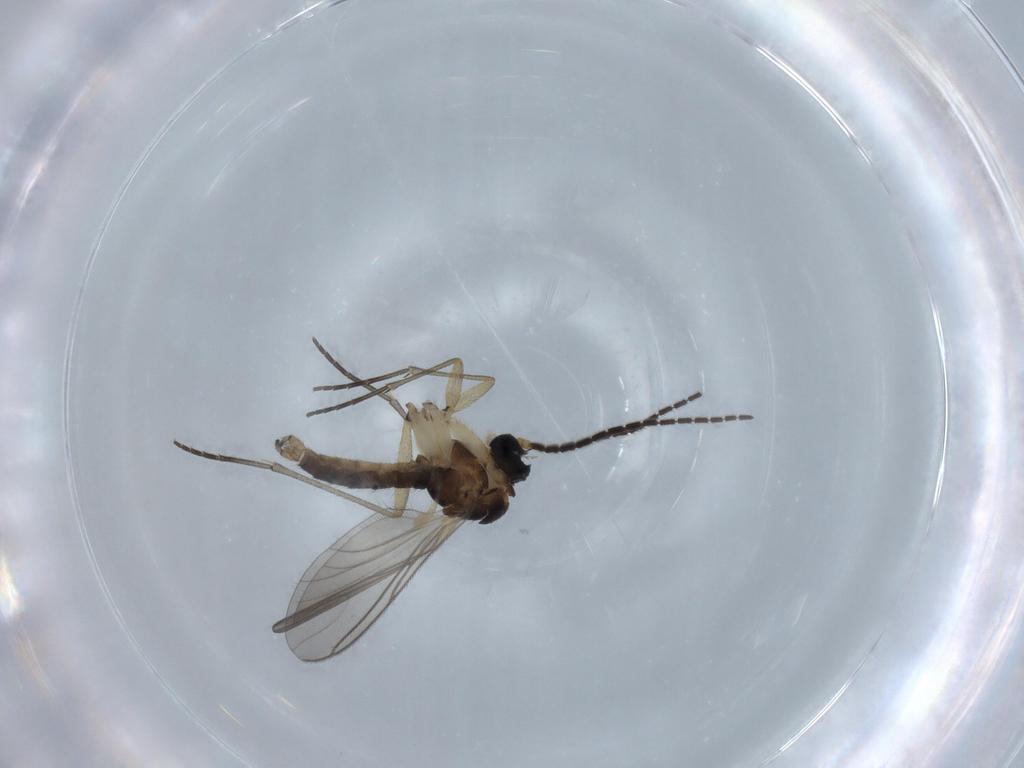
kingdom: Animalia
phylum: Arthropoda
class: Insecta
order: Diptera
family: Sciaridae
